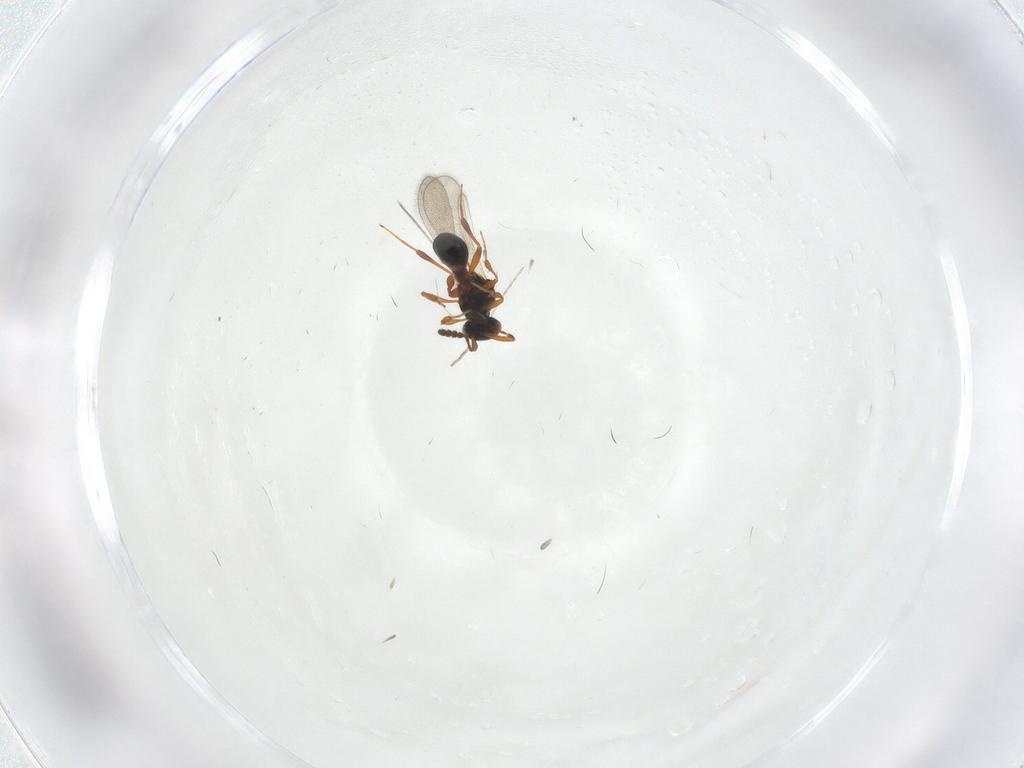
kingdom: Animalia
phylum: Arthropoda
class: Insecta
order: Hymenoptera
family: Platygastridae
